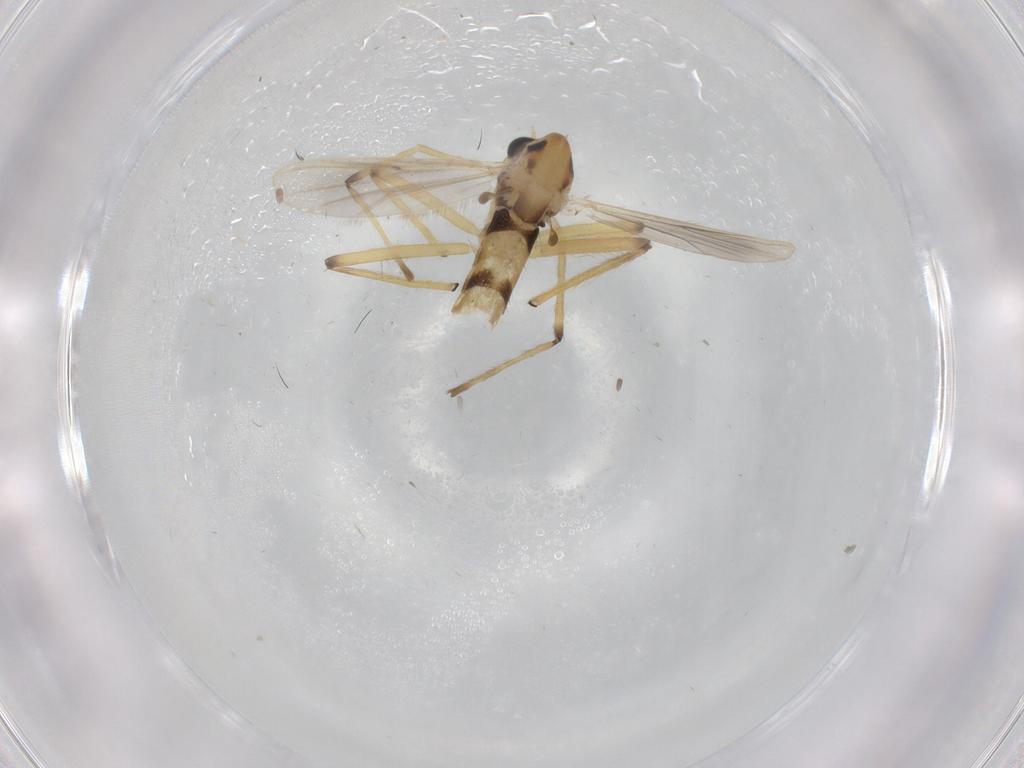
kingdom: Animalia
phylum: Arthropoda
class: Insecta
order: Diptera
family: Chironomidae
